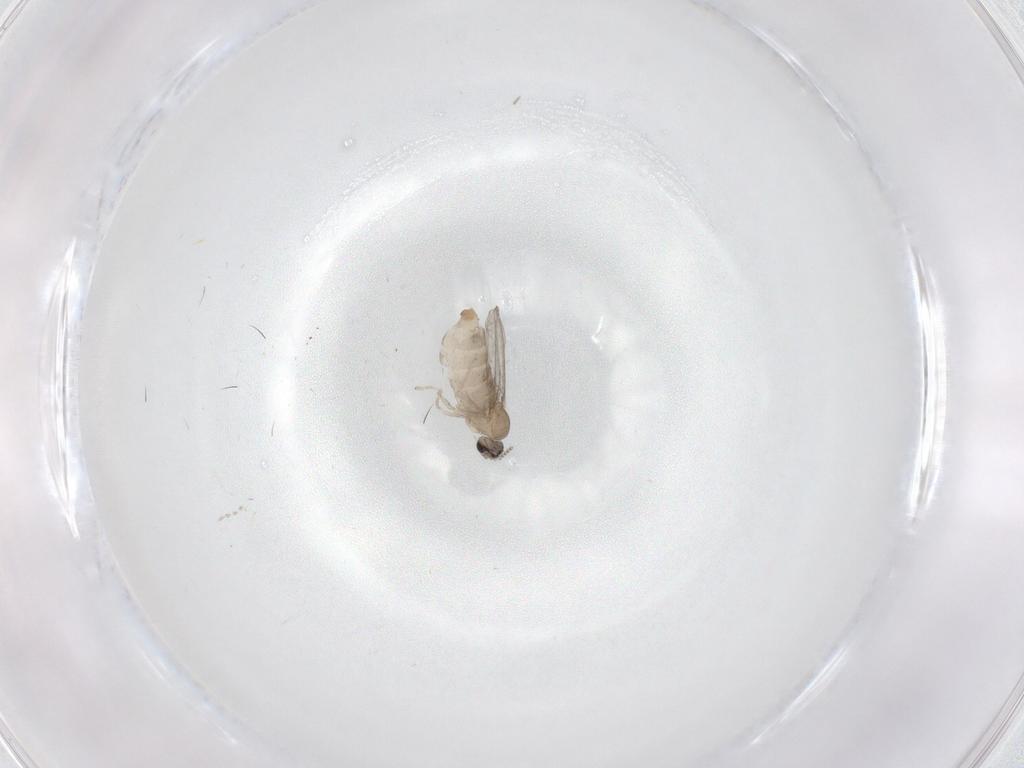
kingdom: Animalia
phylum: Arthropoda
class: Insecta
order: Diptera
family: Cecidomyiidae
